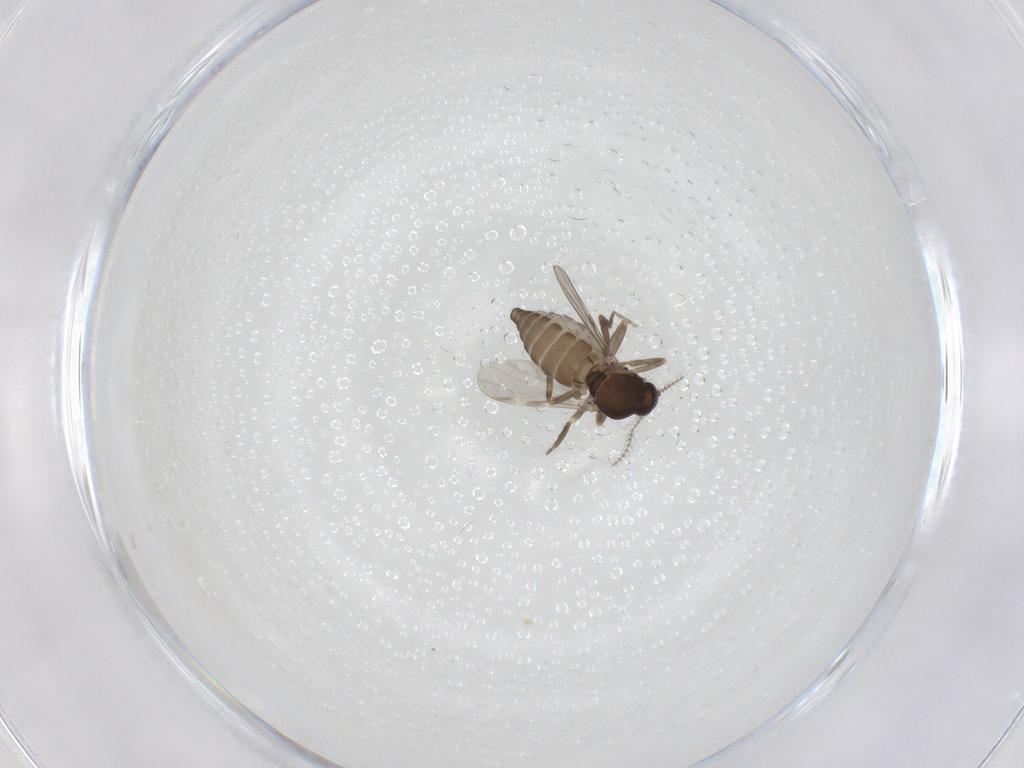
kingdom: Animalia
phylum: Arthropoda
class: Insecta
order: Diptera
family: Ceratopogonidae
